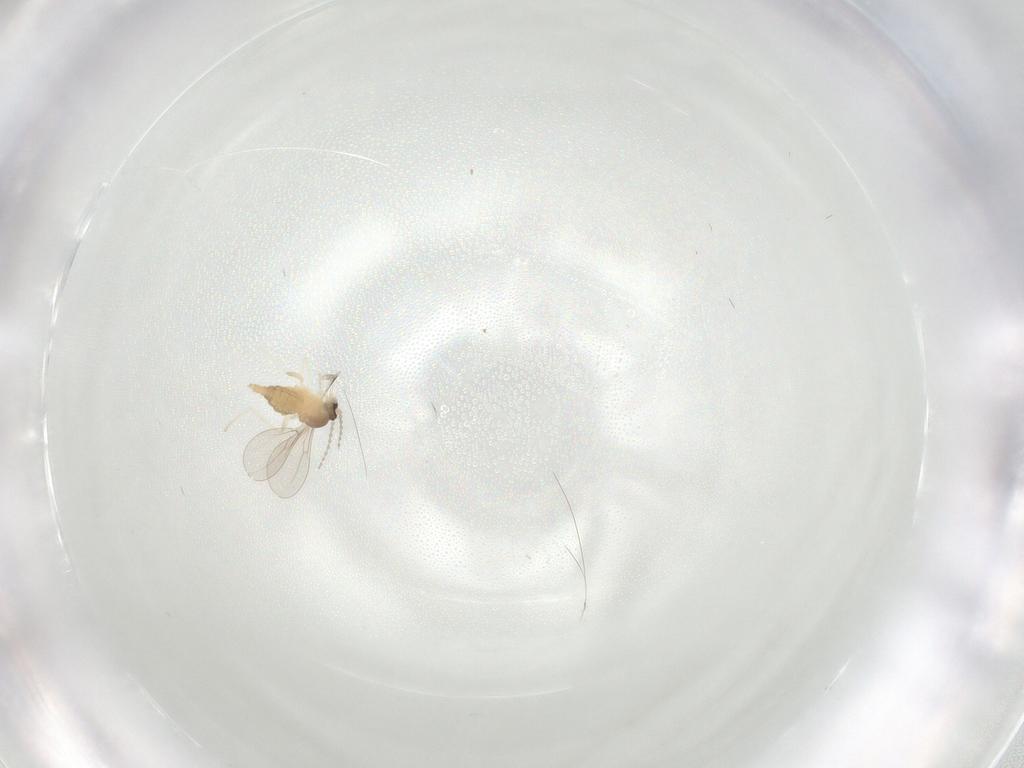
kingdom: Animalia
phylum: Arthropoda
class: Insecta
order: Diptera
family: Cecidomyiidae
